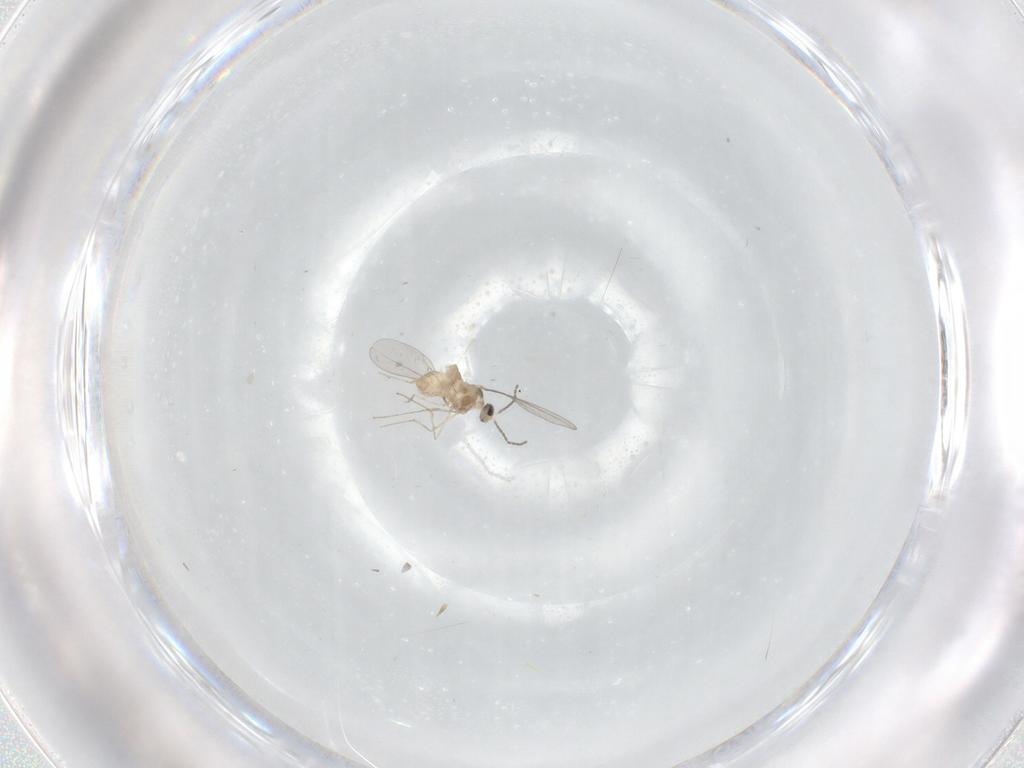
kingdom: Animalia
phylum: Arthropoda
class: Insecta
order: Diptera
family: Cecidomyiidae
